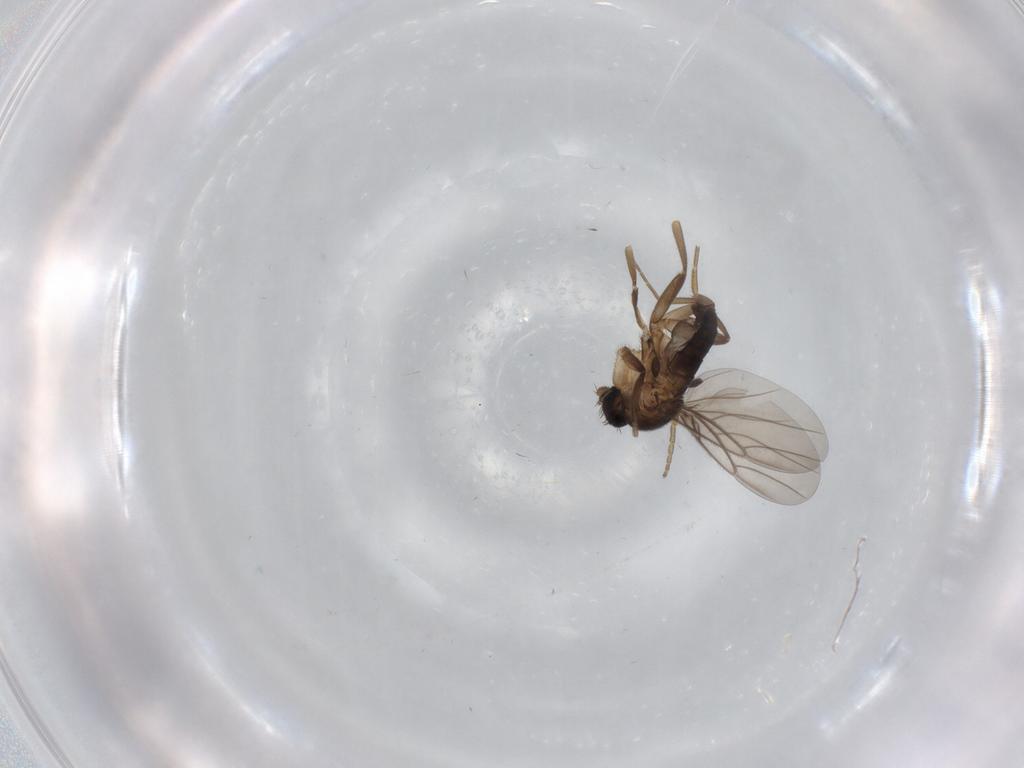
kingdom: Animalia
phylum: Arthropoda
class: Insecta
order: Diptera
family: Phoridae
